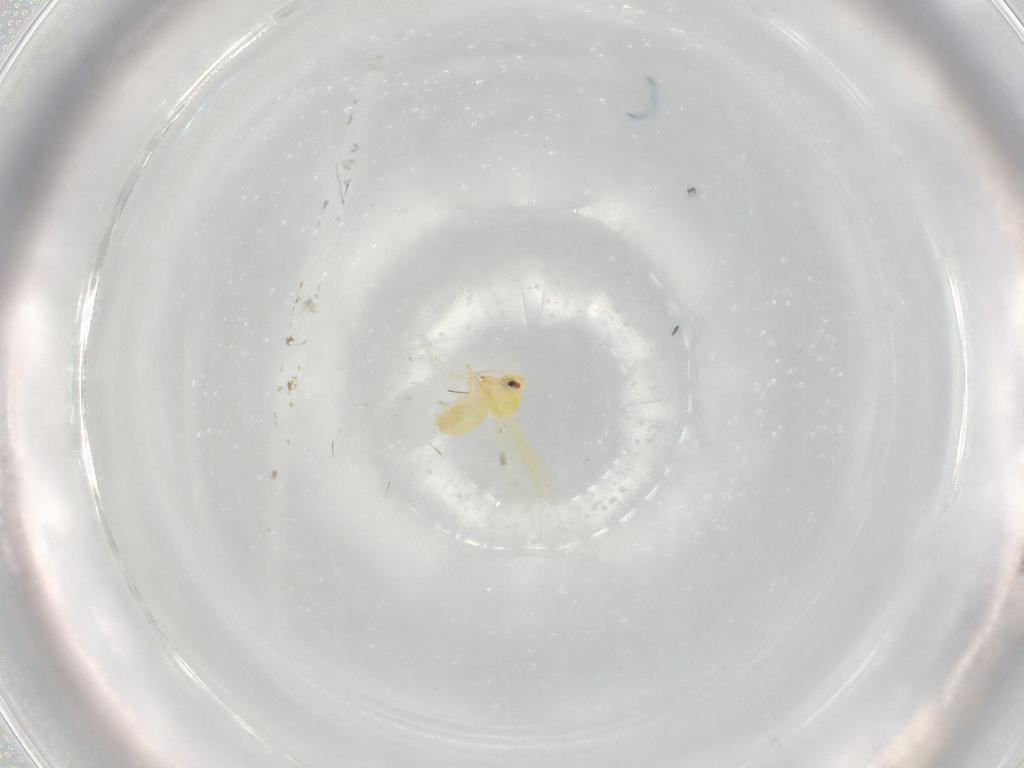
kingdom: Animalia
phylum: Arthropoda
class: Insecta
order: Hemiptera
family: Aleyrodidae
